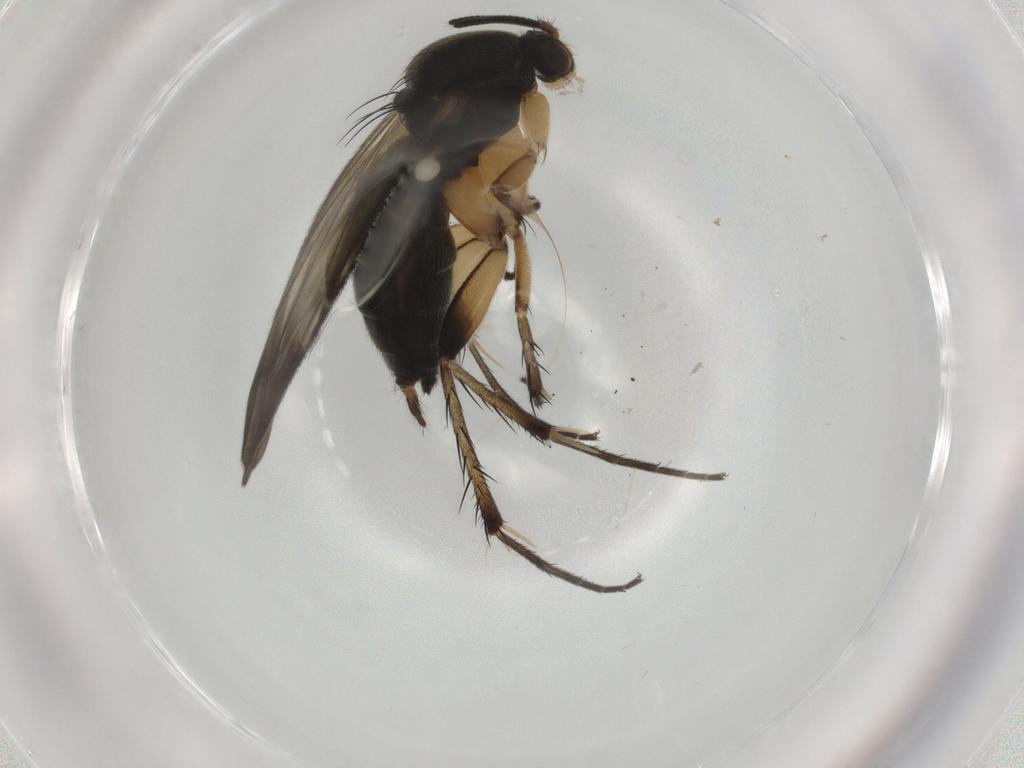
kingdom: Animalia
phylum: Arthropoda
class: Insecta
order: Diptera
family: Mycetophilidae
